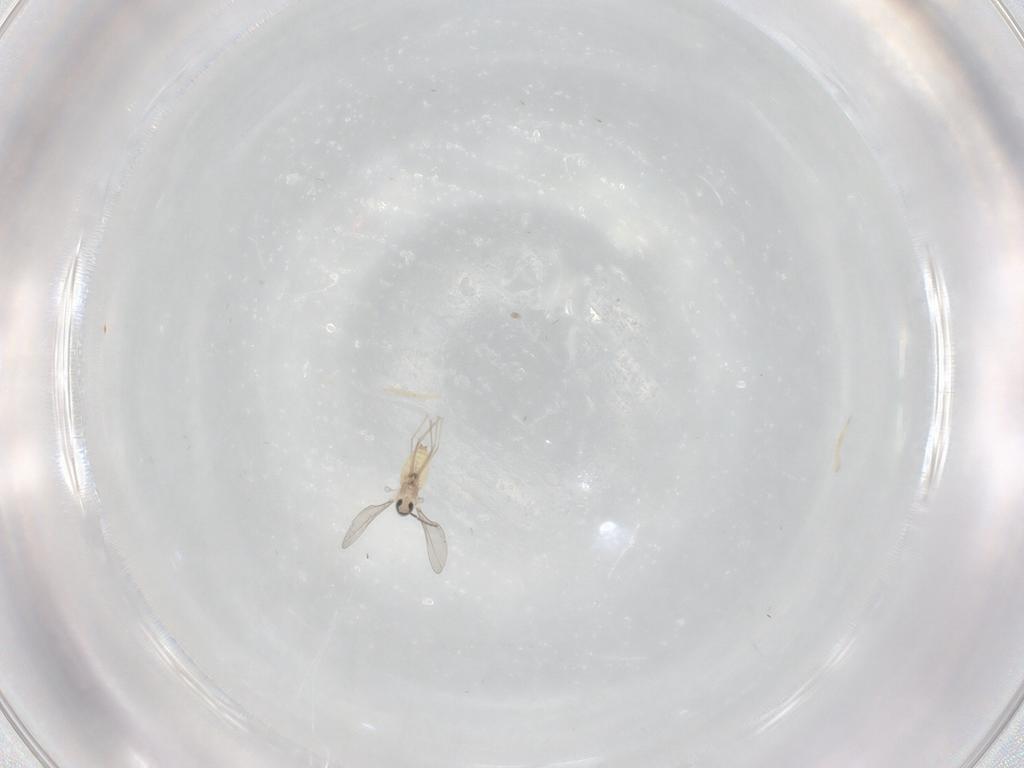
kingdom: Animalia
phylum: Arthropoda
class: Insecta
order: Diptera
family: Cecidomyiidae
